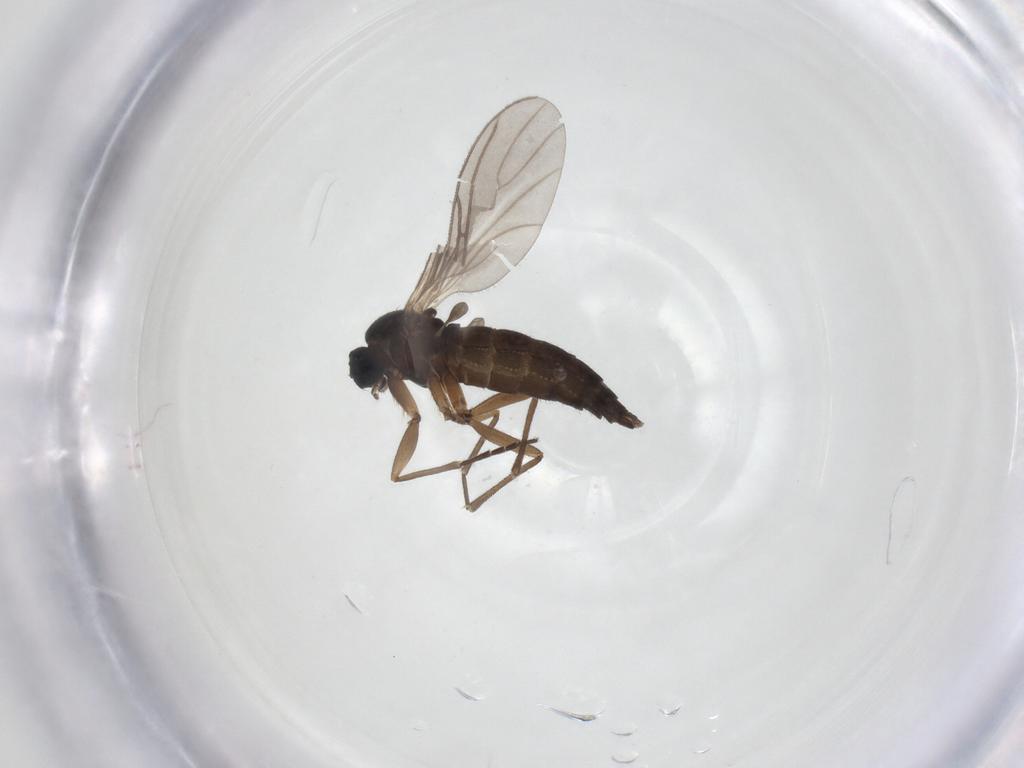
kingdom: Animalia
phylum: Arthropoda
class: Insecta
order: Diptera
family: Sciaridae
